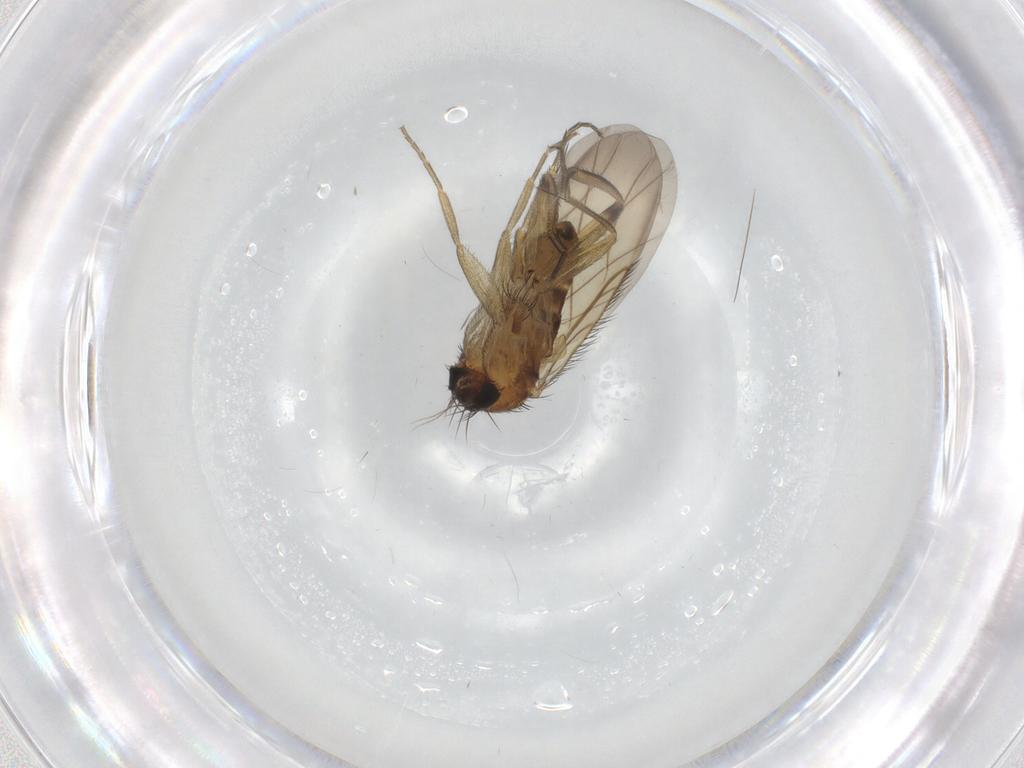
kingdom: Animalia
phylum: Arthropoda
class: Insecta
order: Diptera
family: Phoridae
